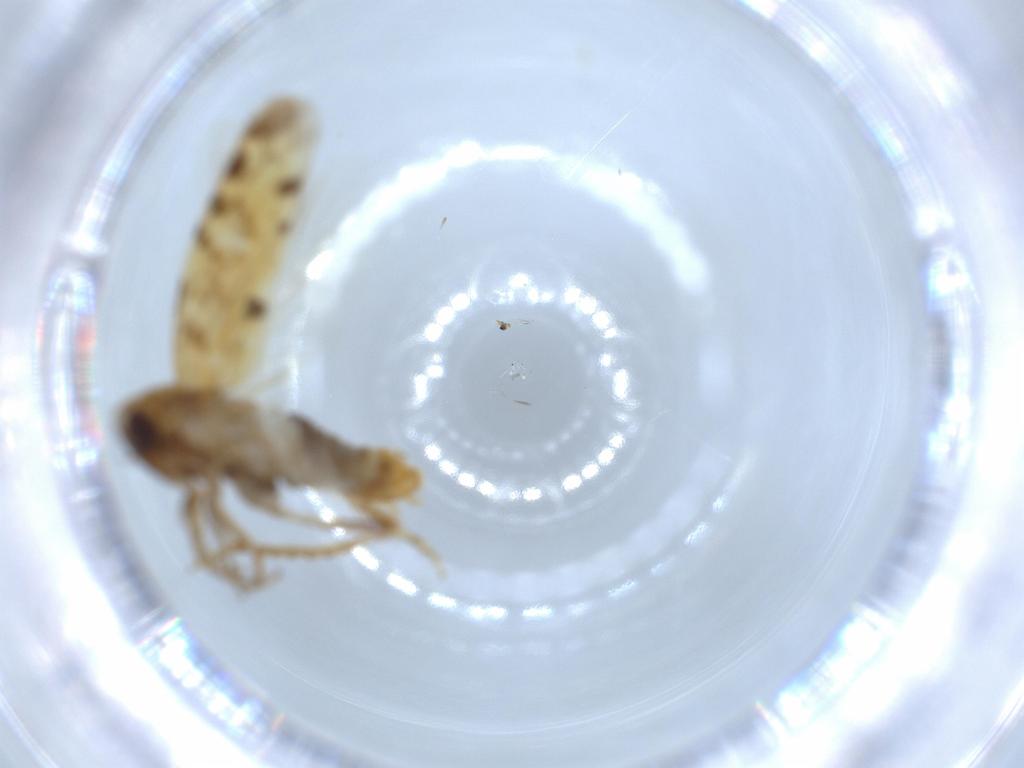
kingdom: Animalia
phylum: Arthropoda
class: Insecta
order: Hemiptera
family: Cicadellidae
